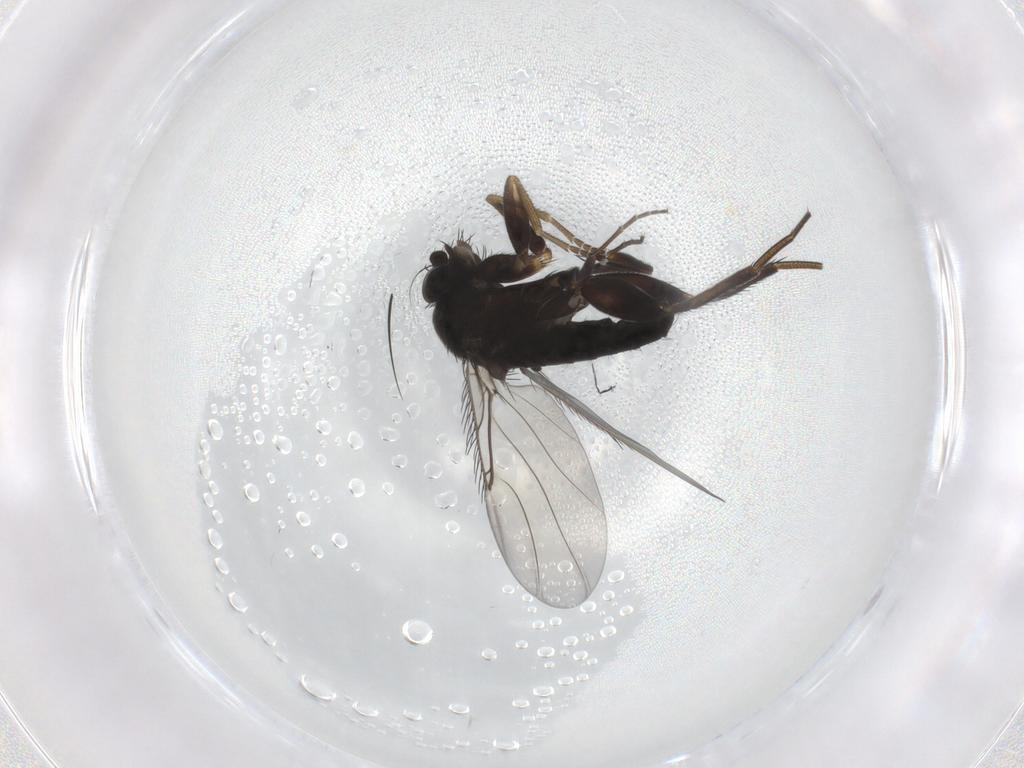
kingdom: Animalia
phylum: Arthropoda
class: Insecta
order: Diptera
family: Phoridae
